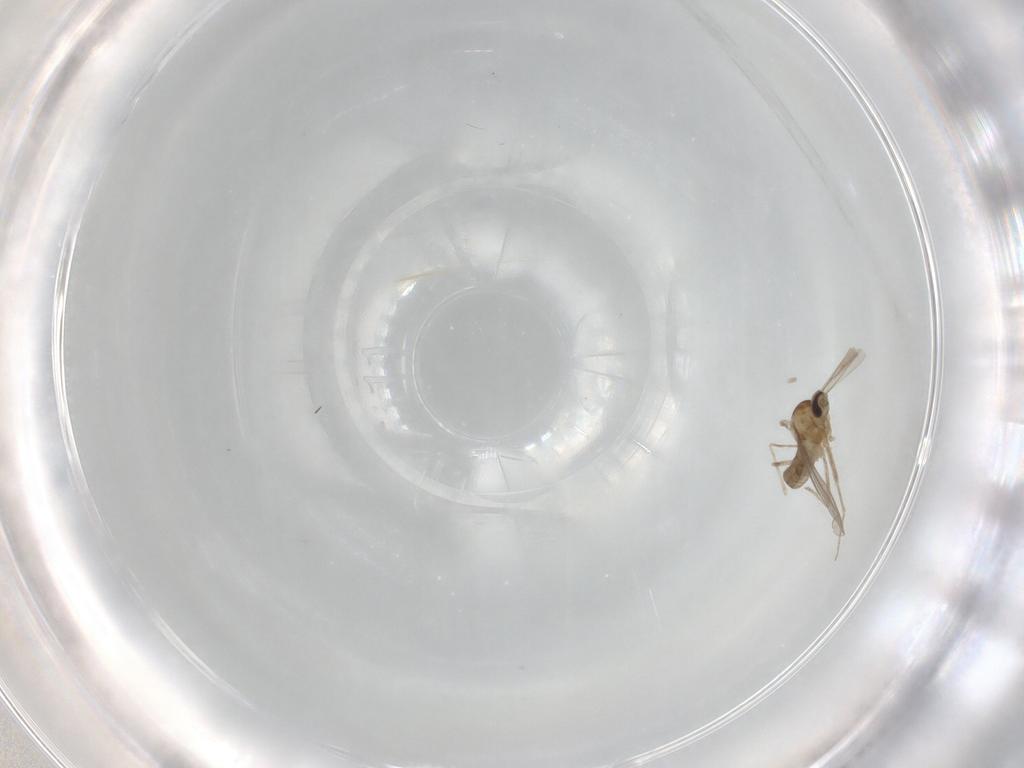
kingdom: Animalia
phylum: Arthropoda
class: Insecta
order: Diptera
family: Cecidomyiidae
